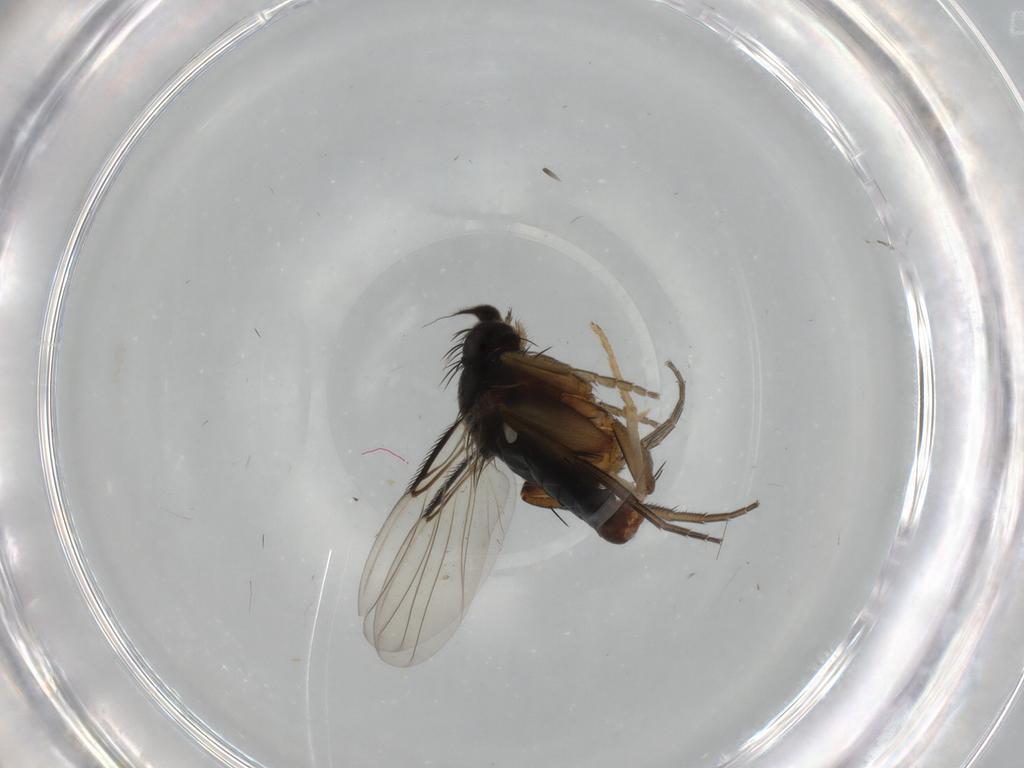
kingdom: Animalia
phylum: Arthropoda
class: Insecta
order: Diptera
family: Phoridae
